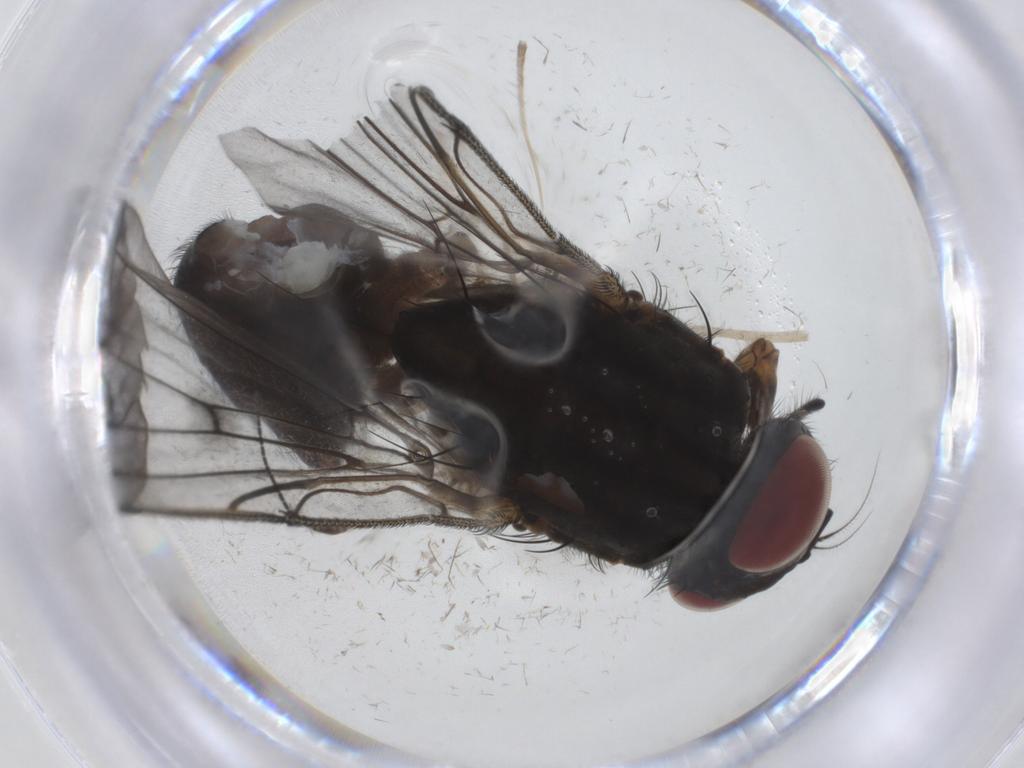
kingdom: Animalia
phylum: Arthropoda
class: Insecta
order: Diptera
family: Muscidae
